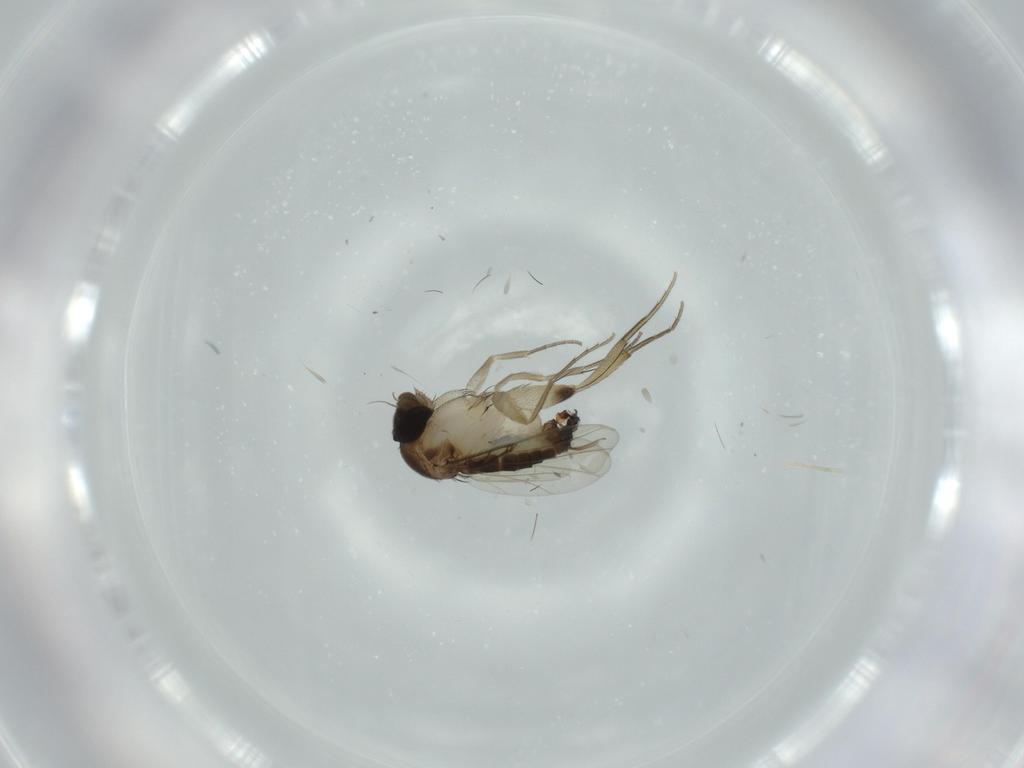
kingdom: Animalia
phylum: Arthropoda
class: Insecta
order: Diptera
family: Phoridae
